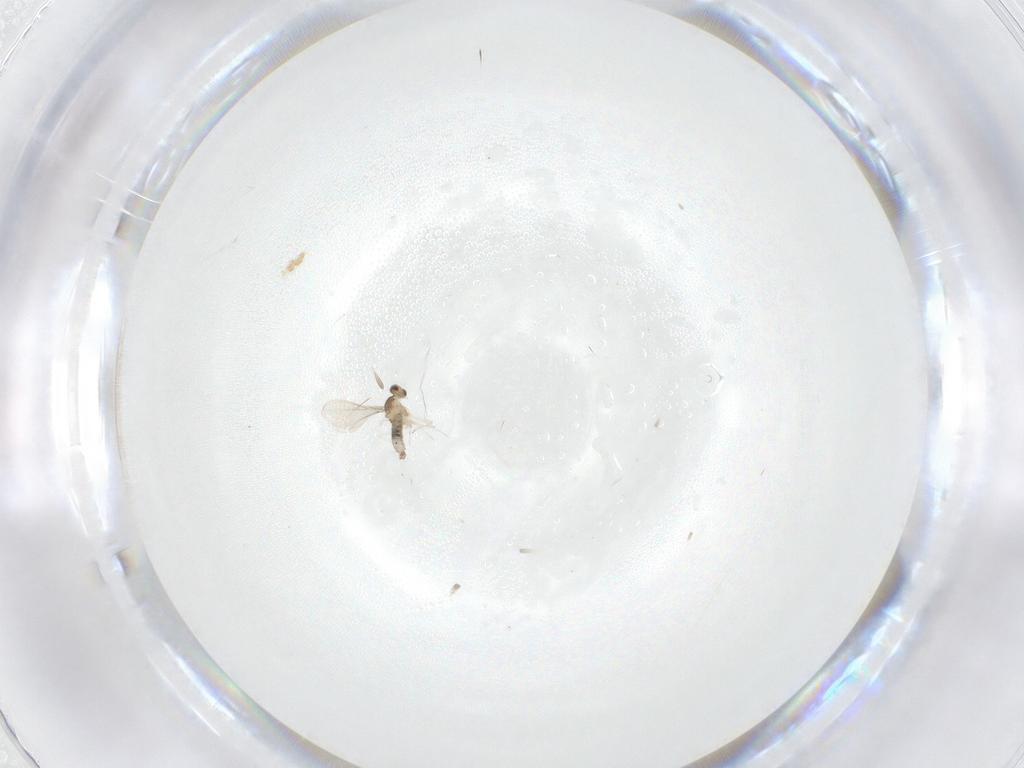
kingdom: Animalia
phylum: Arthropoda
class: Insecta
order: Diptera
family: Cecidomyiidae
